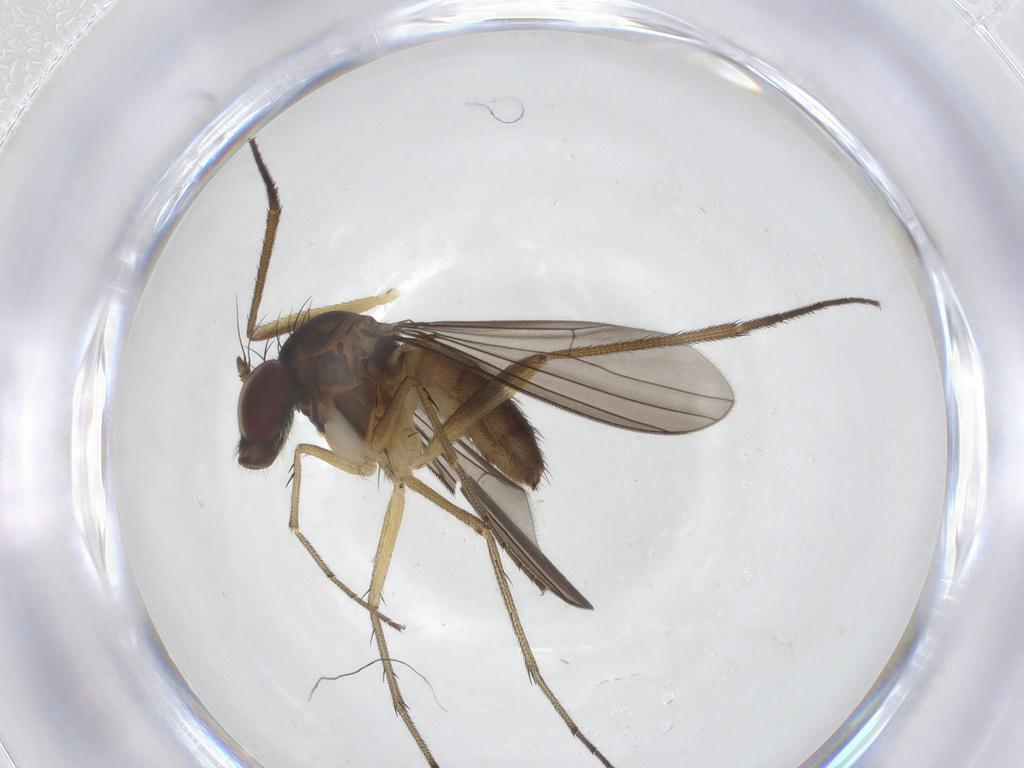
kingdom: Animalia
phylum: Arthropoda
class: Insecta
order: Diptera
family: Dolichopodidae
